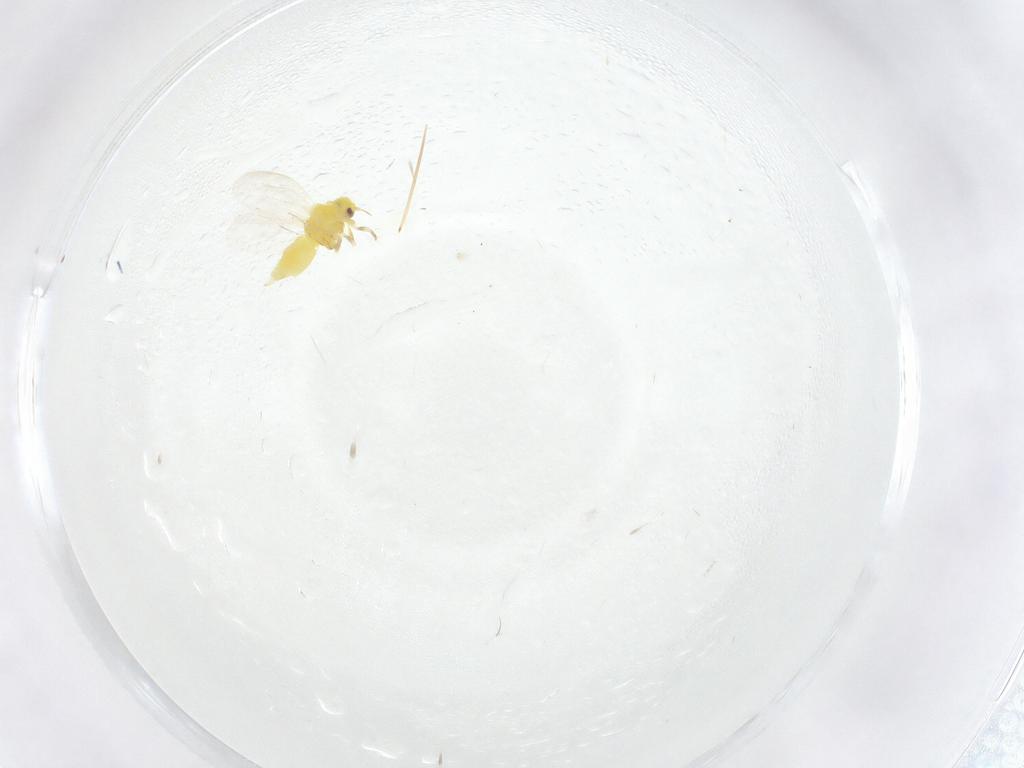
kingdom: Animalia
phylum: Arthropoda
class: Insecta
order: Hemiptera
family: Aleyrodidae
